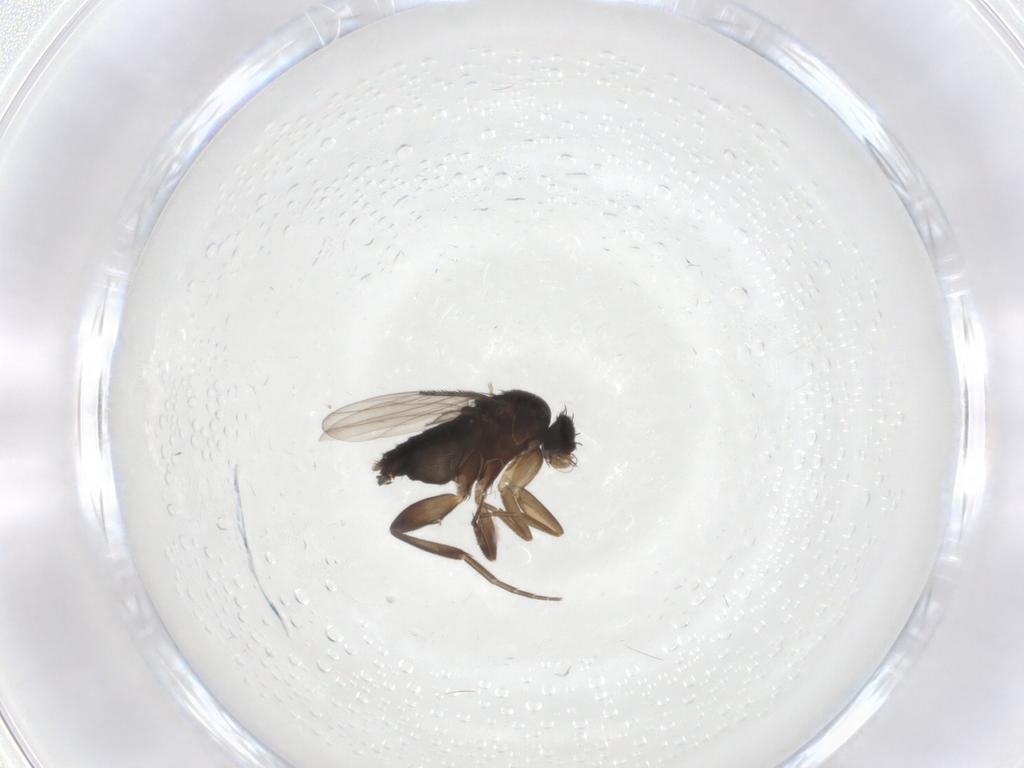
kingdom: Animalia
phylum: Arthropoda
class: Insecta
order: Diptera
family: Phoridae
